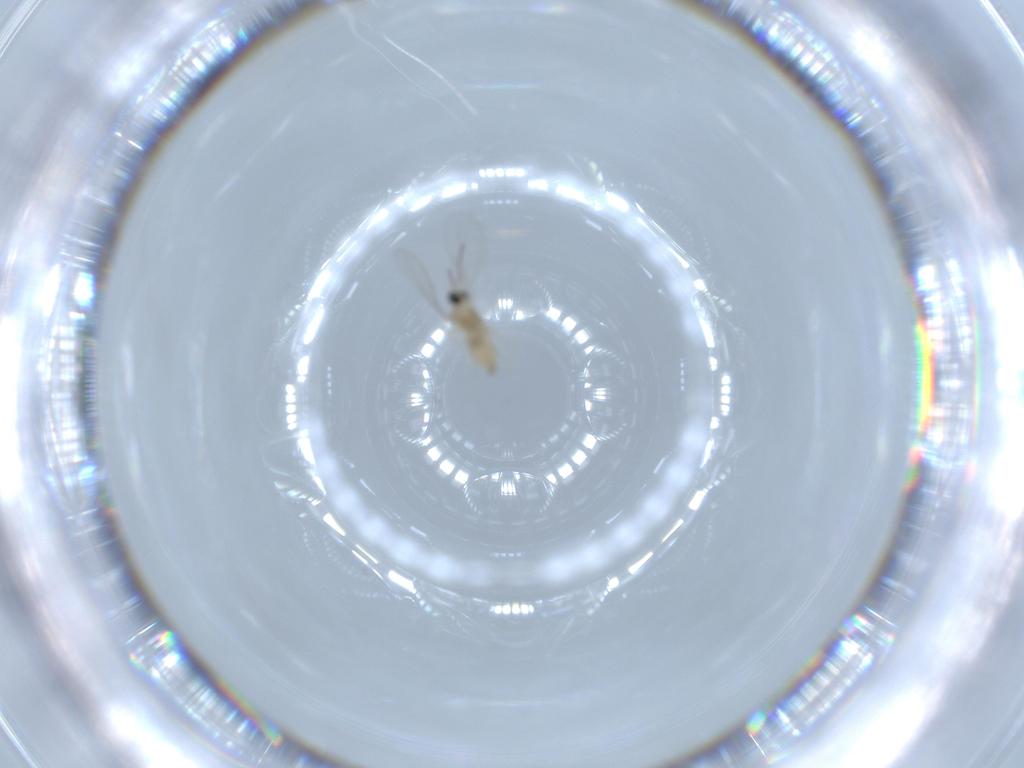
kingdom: Animalia
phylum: Arthropoda
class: Insecta
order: Diptera
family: Cecidomyiidae
